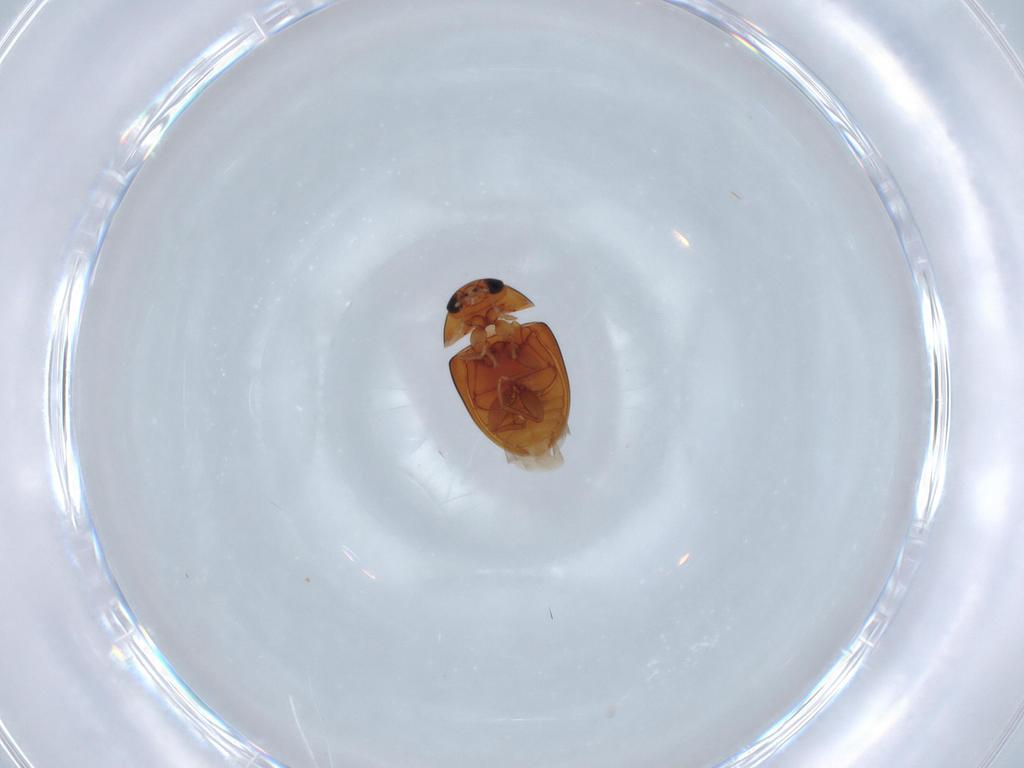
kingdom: Animalia
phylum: Arthropoda
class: Insecta
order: Coleoptera
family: Phalacridae
